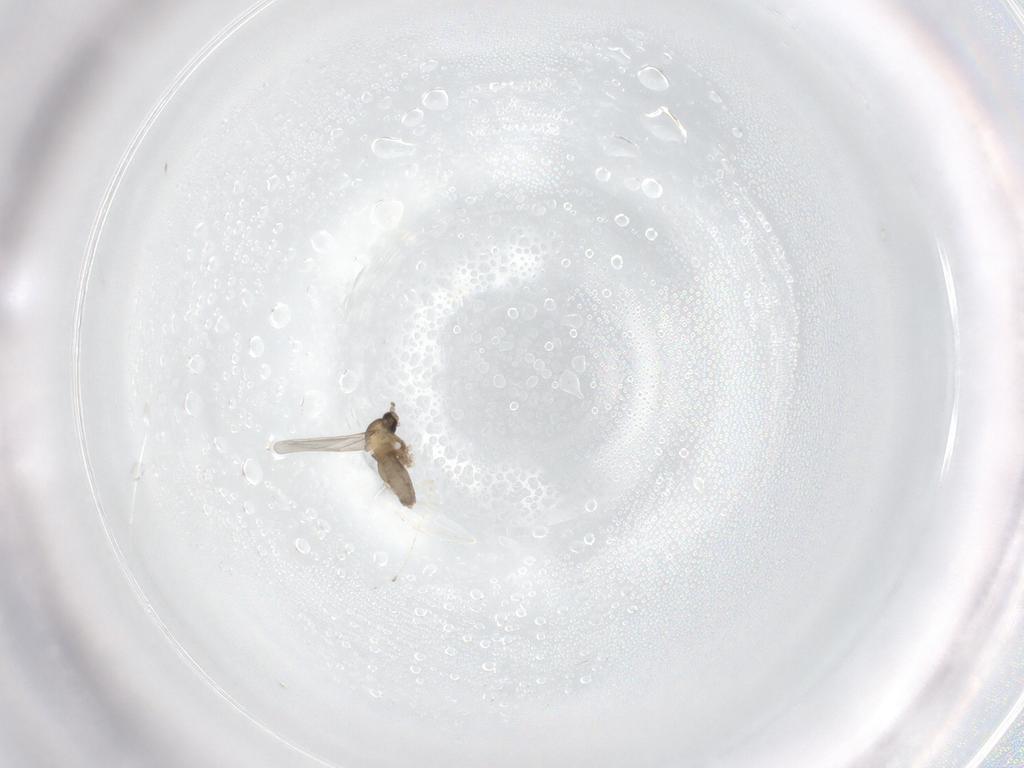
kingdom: Animalia
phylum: Arthropoda
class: Insecta
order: Diptera
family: Cecidomyiidae
